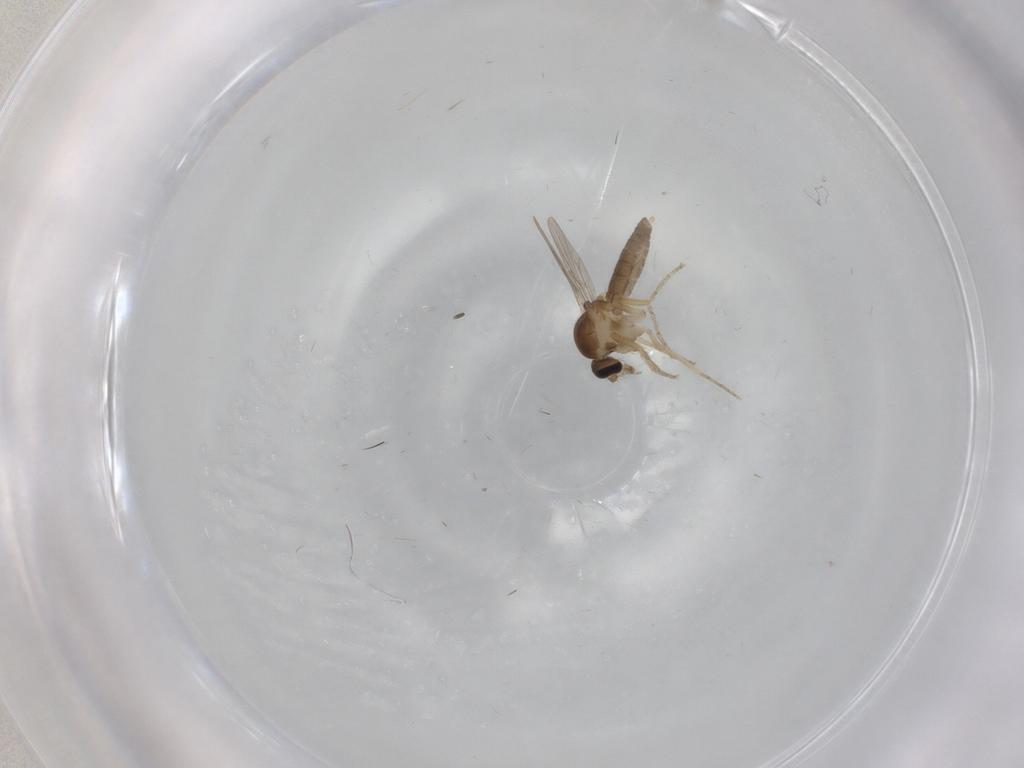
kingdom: Animalia
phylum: Arthropoda
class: Insecta
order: Diptera
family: Ceratopogonidae
